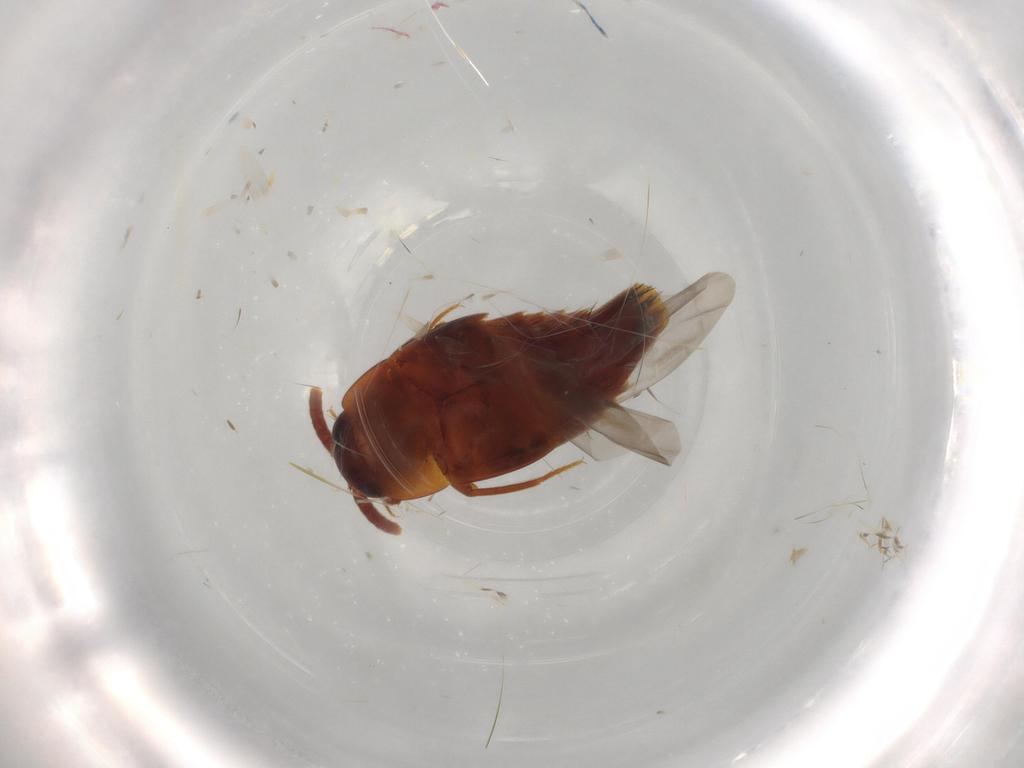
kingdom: Animalia
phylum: Arthropoda
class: Insecta
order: Coleoptera
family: Staphylinidae
